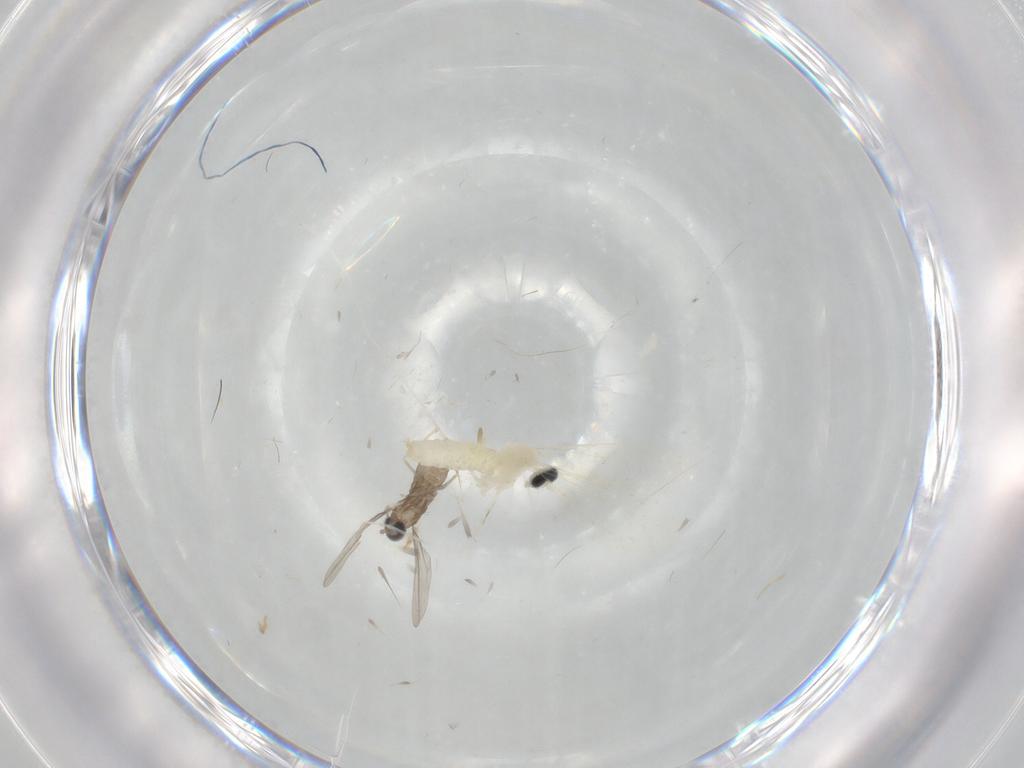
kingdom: Animalia
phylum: Arthropoda
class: Insecta
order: Diptera
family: Cecidomyiidae
